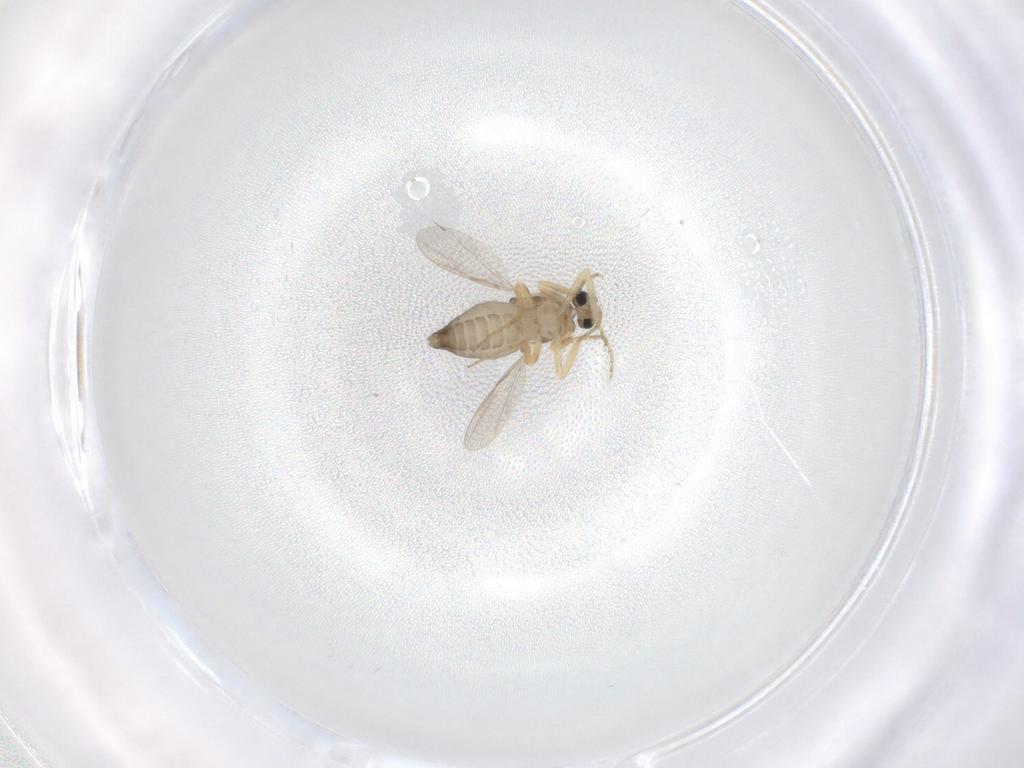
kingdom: Animalia
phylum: Arthropoda
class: Insecta
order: Diptera
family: Ceratopogonidae
